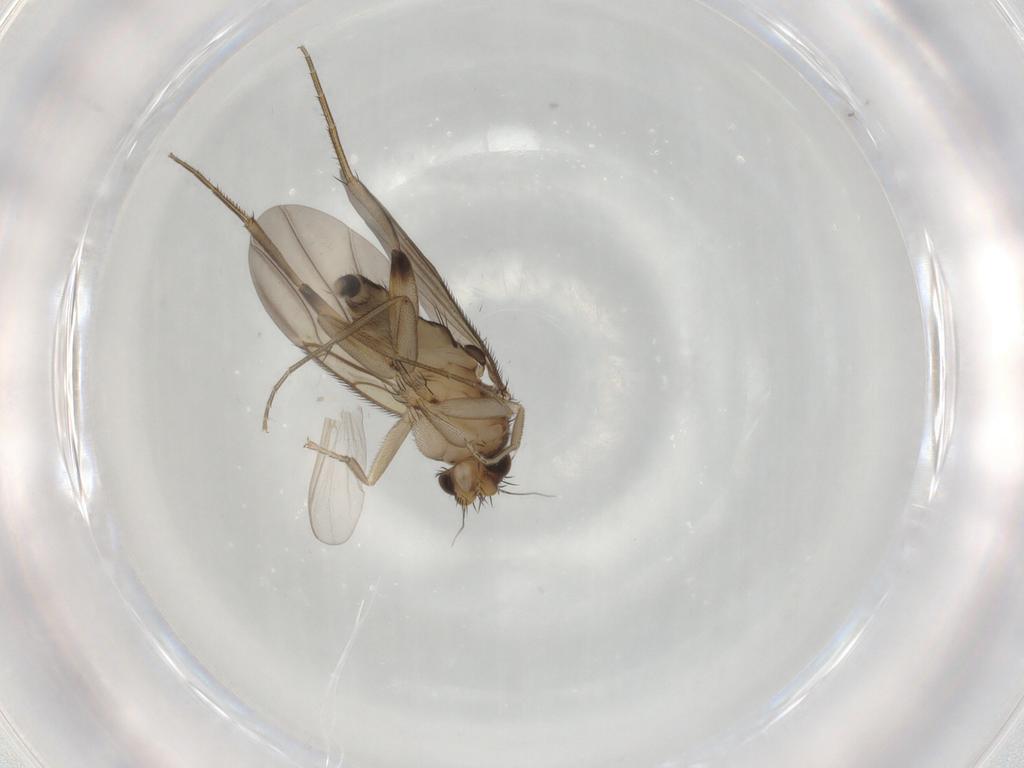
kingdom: Animalia
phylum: Arthropoda
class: Insecta
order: Diptera
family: Phoridae
